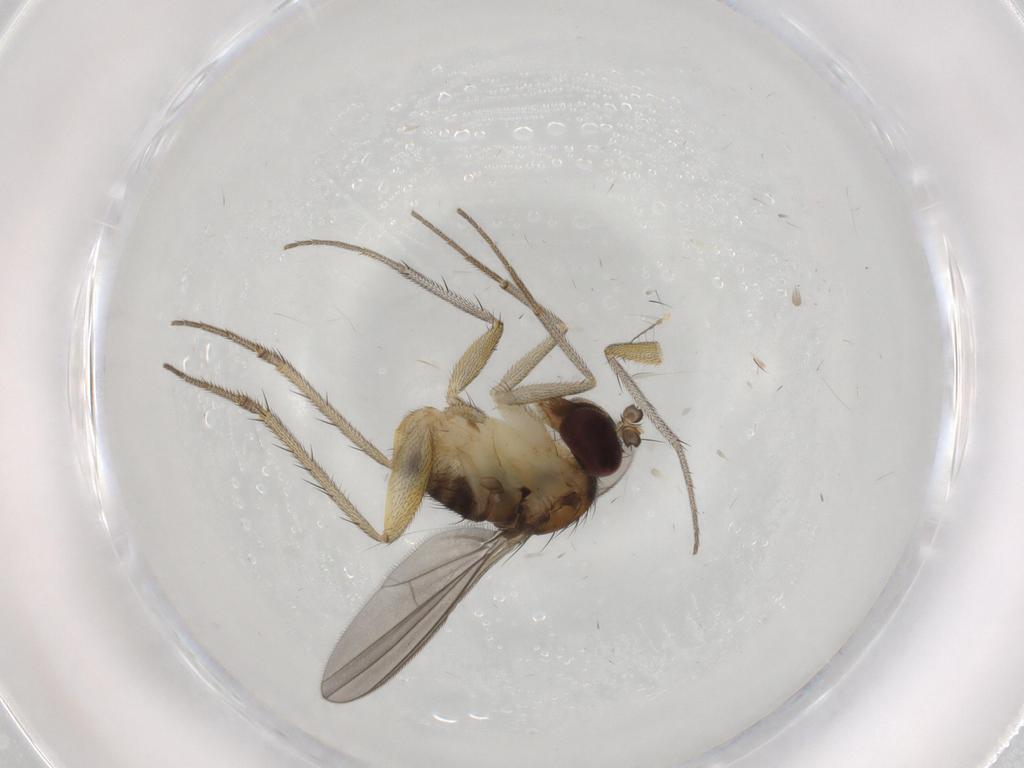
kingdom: Animalia
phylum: Arthropoda
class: Insecta
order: Diptera
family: Dolichopodidae
